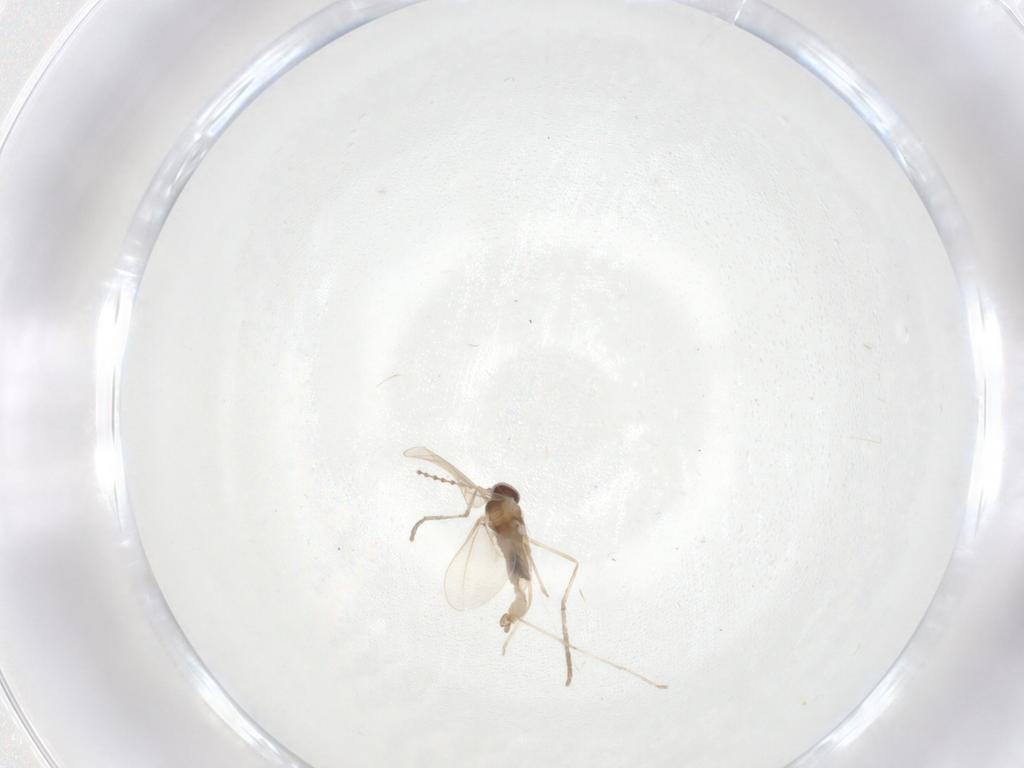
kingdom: Animalia
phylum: Arthropoda
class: Insecta
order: Diptera
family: Cecidomyiidae
